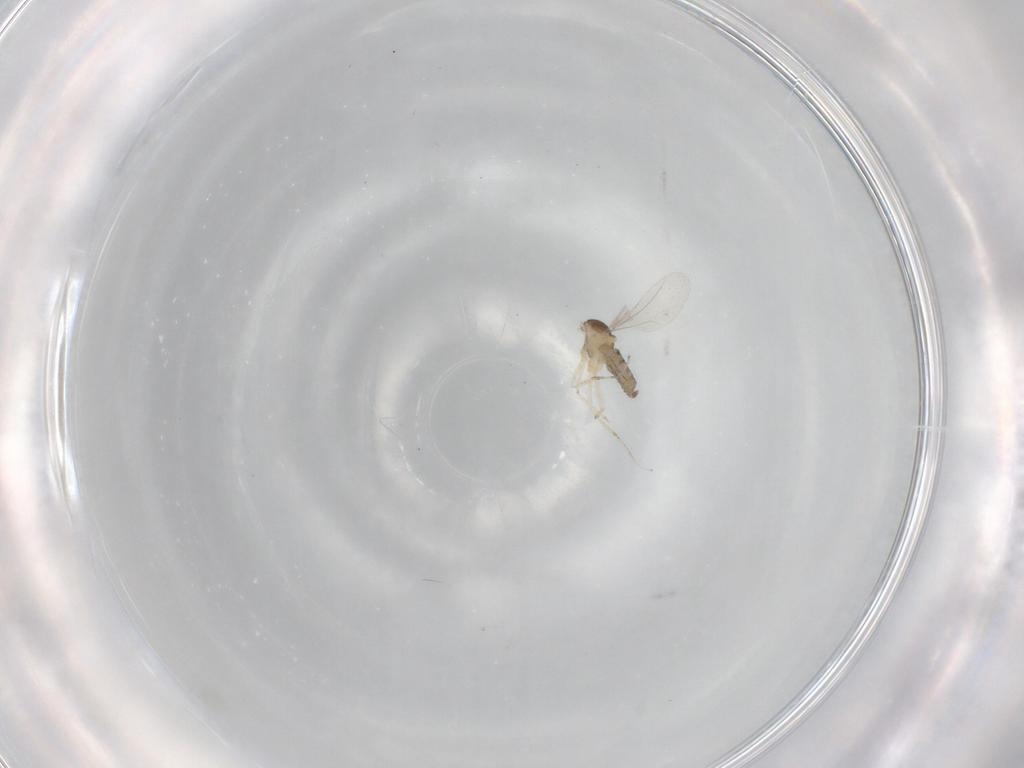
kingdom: Animalia
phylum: Arthropoda
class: Insecta
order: Diptera
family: Cecidomyiidae
